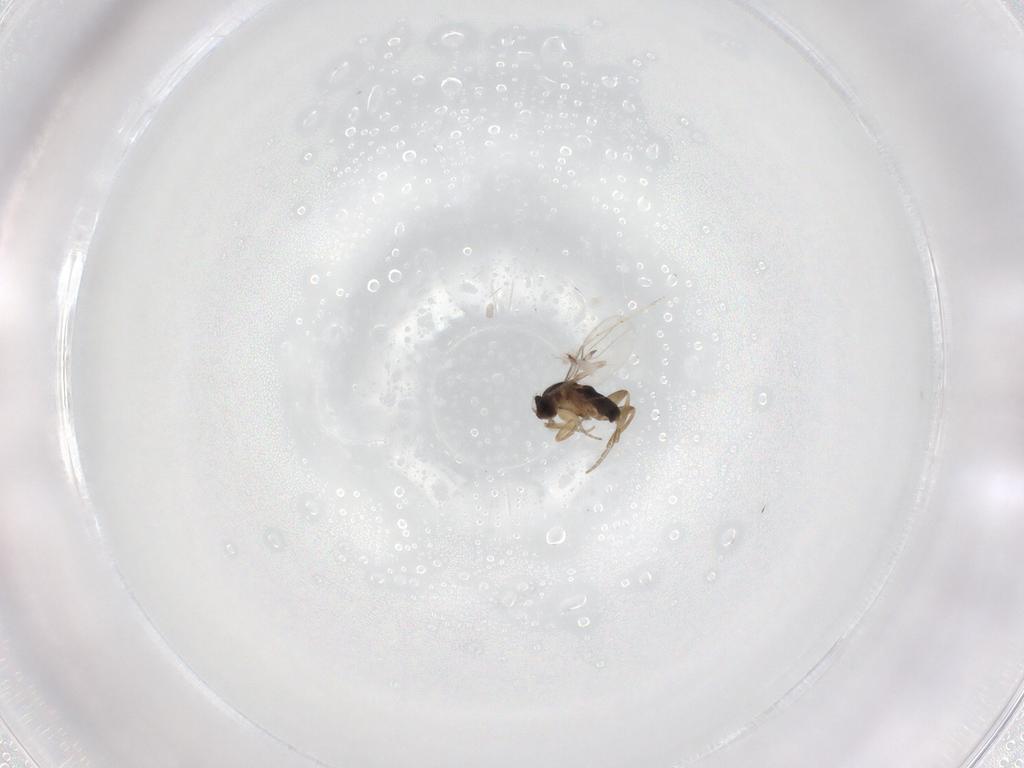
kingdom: Animalia
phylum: Arthropoda
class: Insecta
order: Diptera
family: Phoridae
